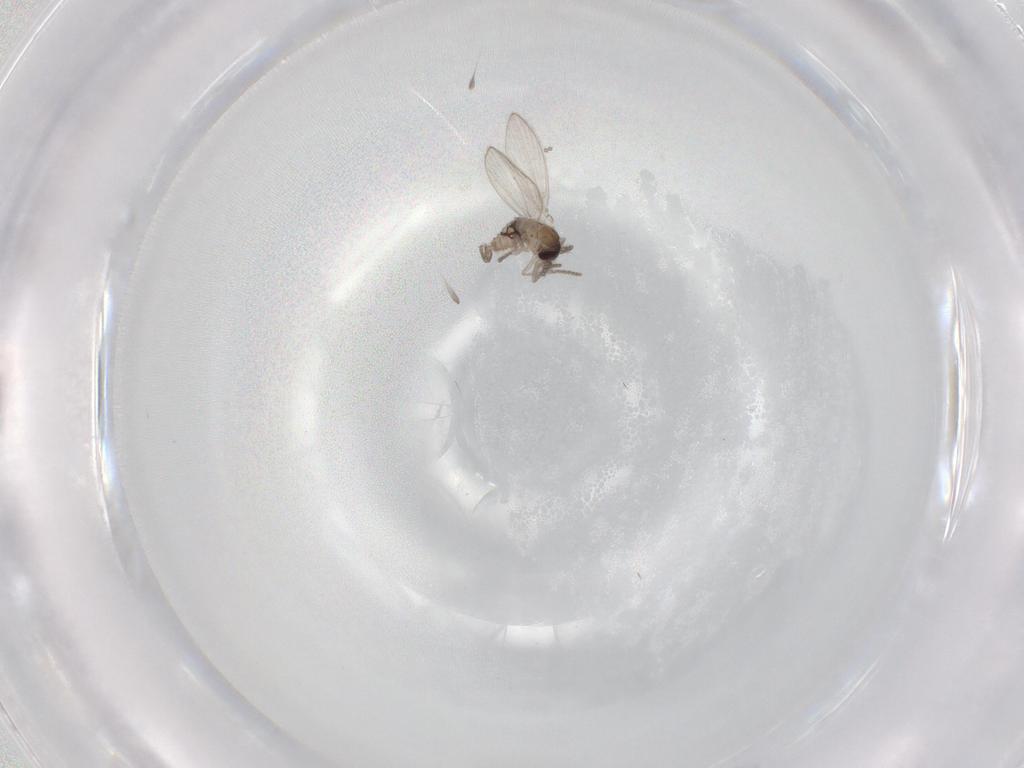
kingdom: Animalia
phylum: Arthropoda
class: Insecta
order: Diptera
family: Psychodidae
